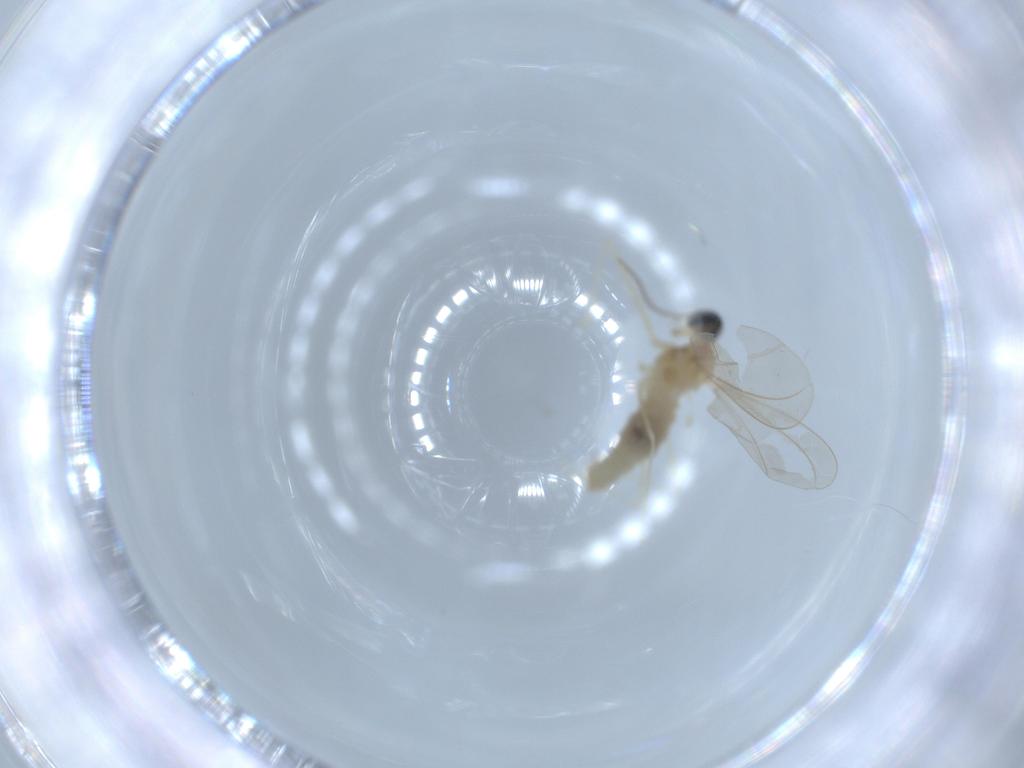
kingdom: Animalia
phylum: Arthropoda
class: Insecta
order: Diptera
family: Cecidomyiidae
